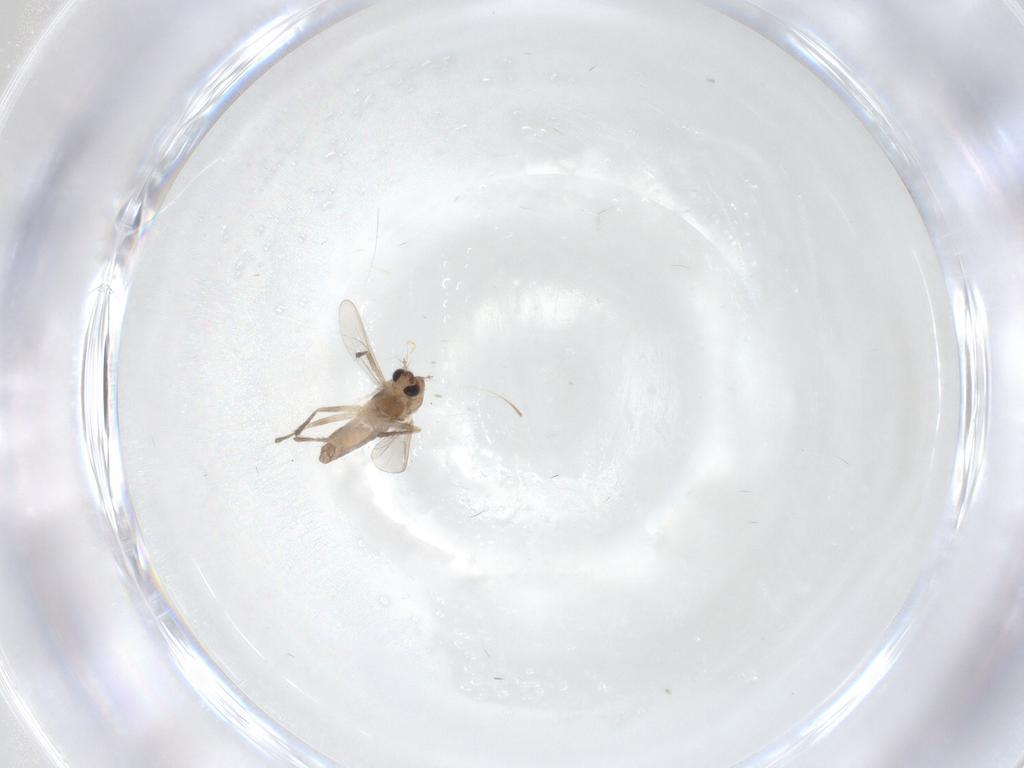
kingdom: Animalia
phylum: Arthropoda
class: Insecta
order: Diptera
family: Chironomidae
